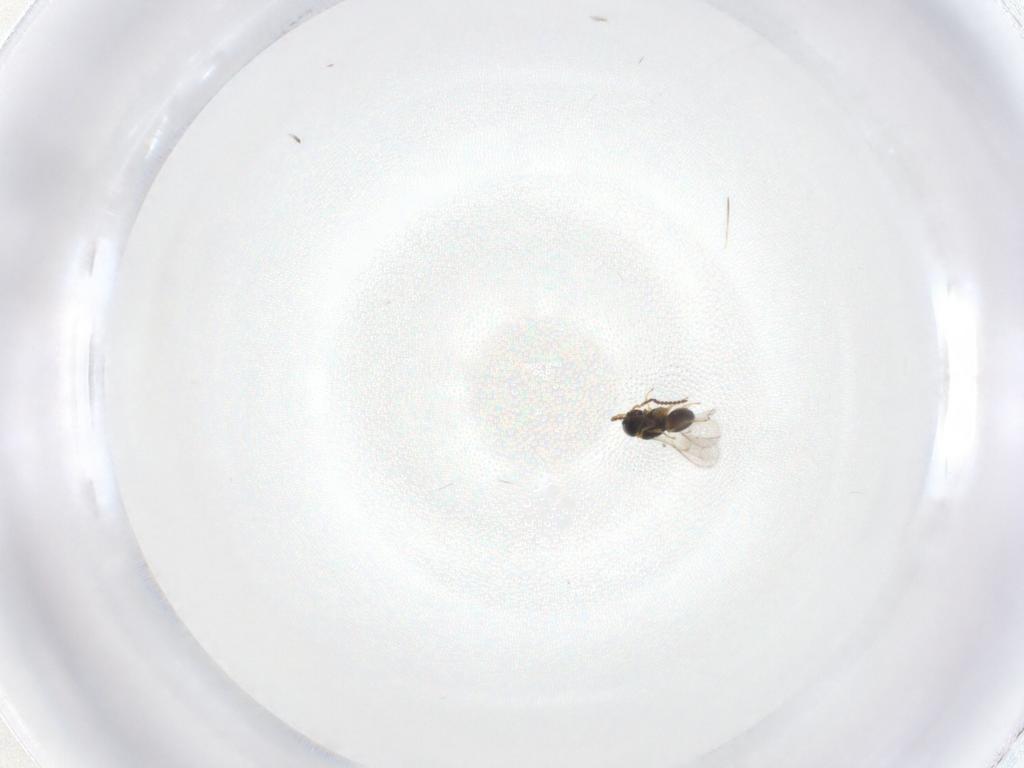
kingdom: Animalia
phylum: Arthropoda
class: Insecta
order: Hymenoptera
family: Scelionidae
